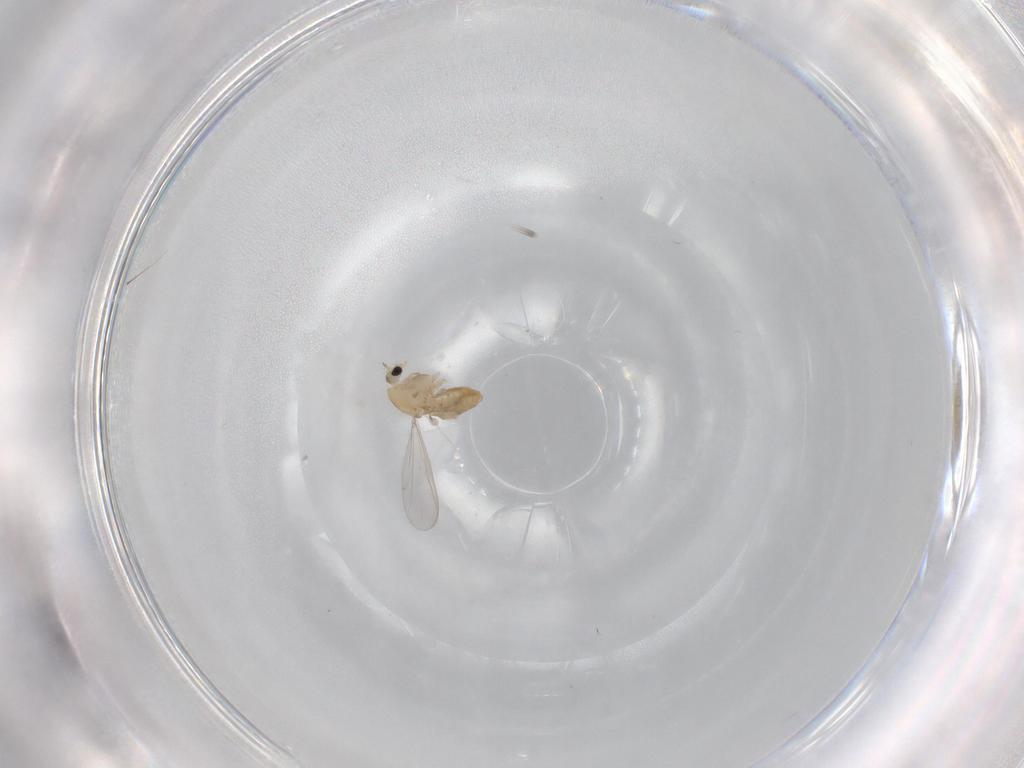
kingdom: Animalia
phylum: Arthropoda
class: Insecta
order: Diptera
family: Chironomidae
